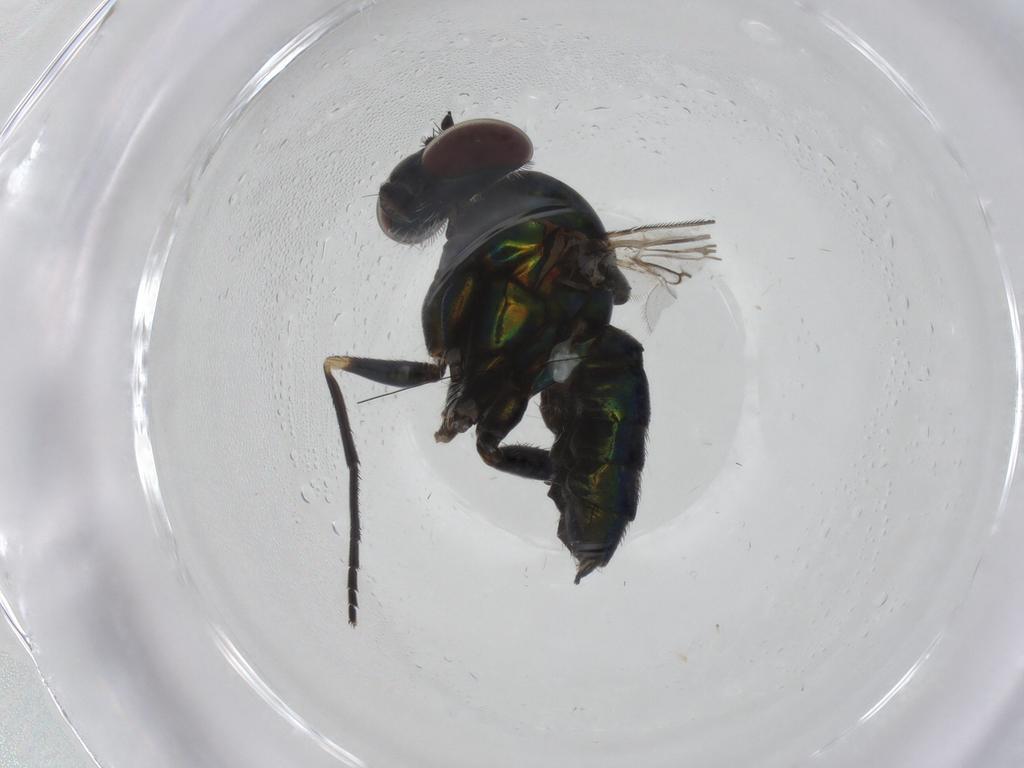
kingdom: Animalia
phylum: Arthropoda
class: Insecta
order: Diptera
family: Dolichopodidae
